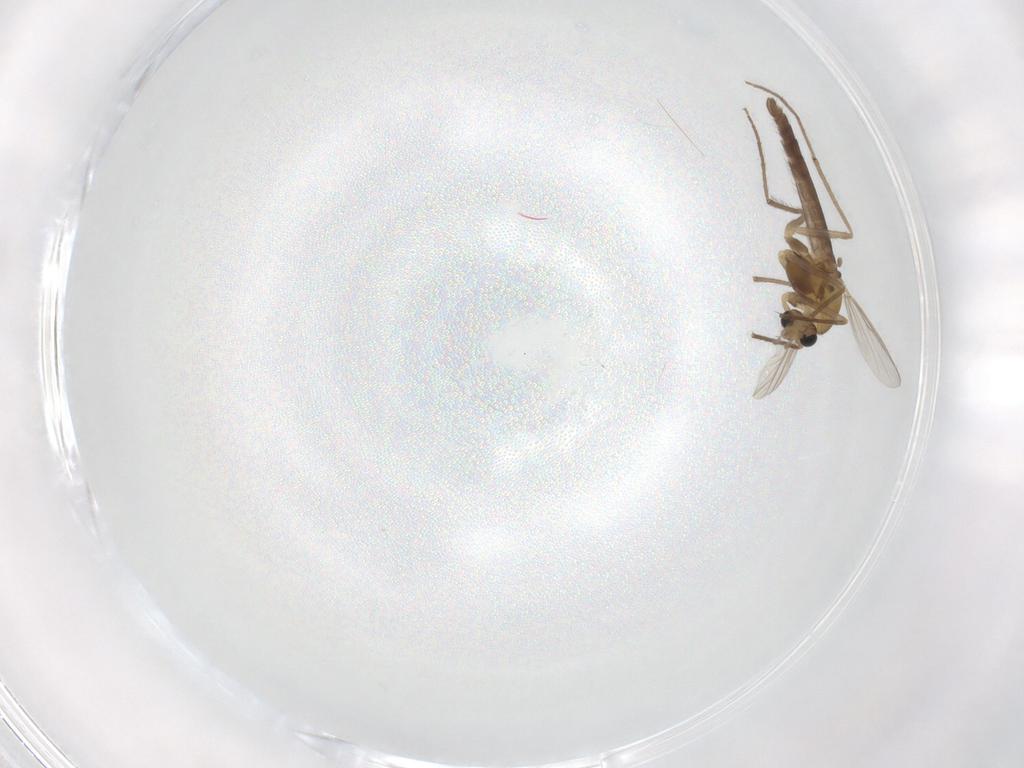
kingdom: Animalia
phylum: Arthropoda
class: Insecta
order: Diptera
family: Chironomidae
